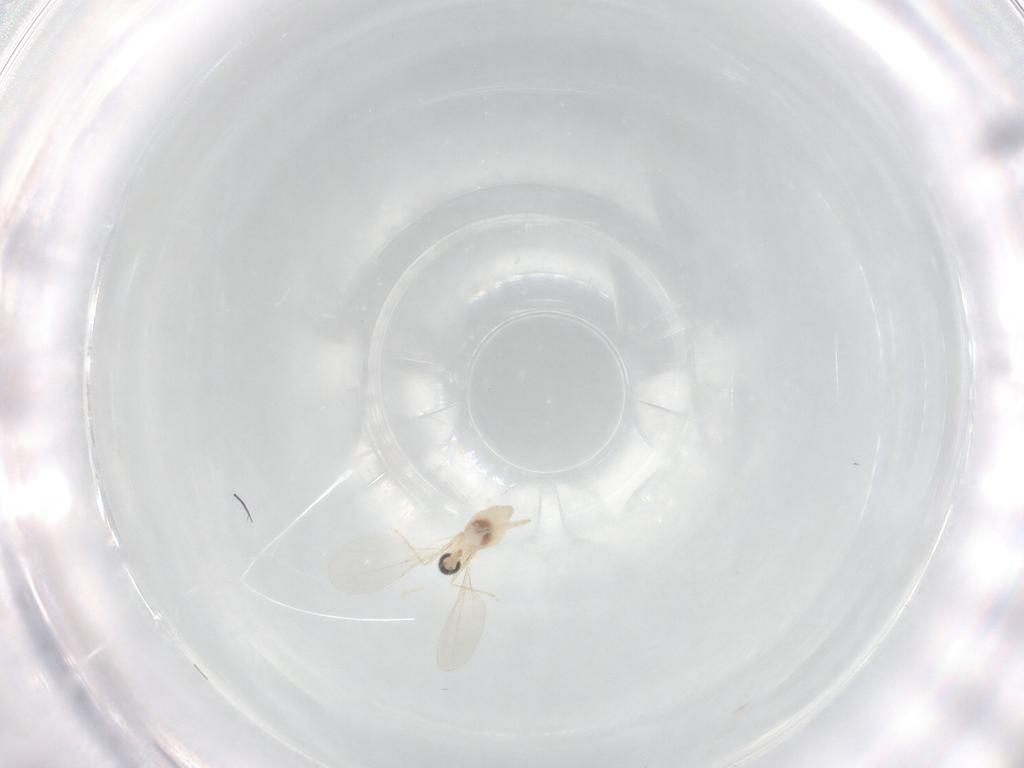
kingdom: Animalia
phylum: Arthropoda
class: Insecta
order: Diptera
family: Cecidomyiidae
